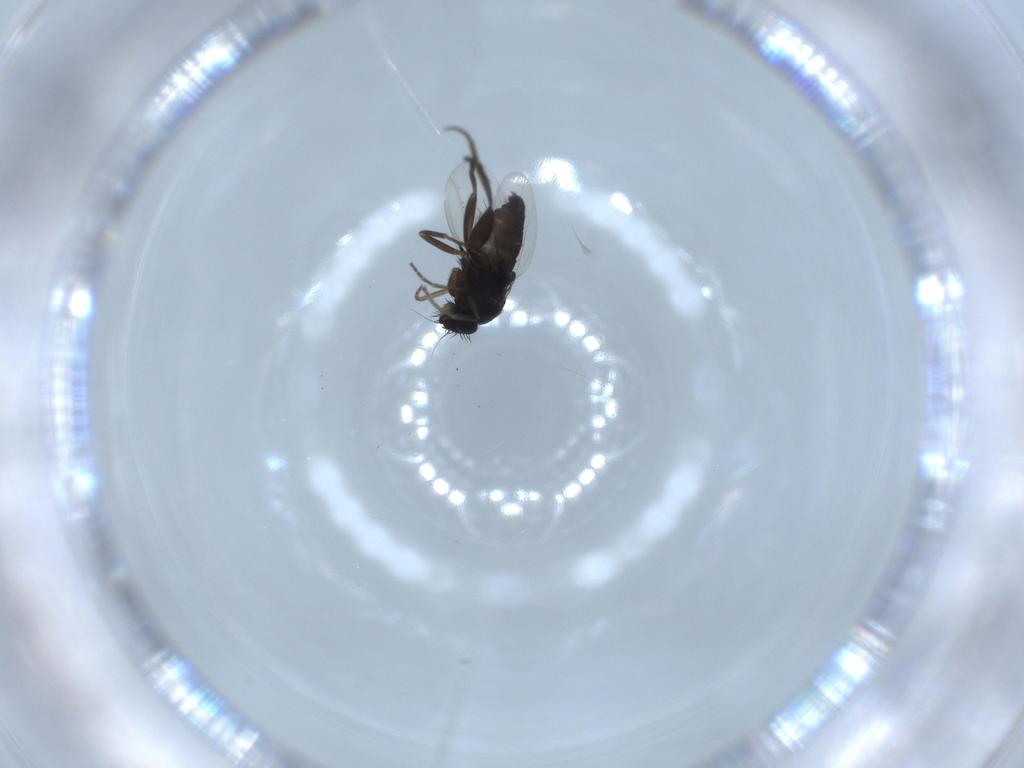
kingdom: Animalia
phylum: Arthropoda
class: Insecta
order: Diptera
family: Sciaridae
